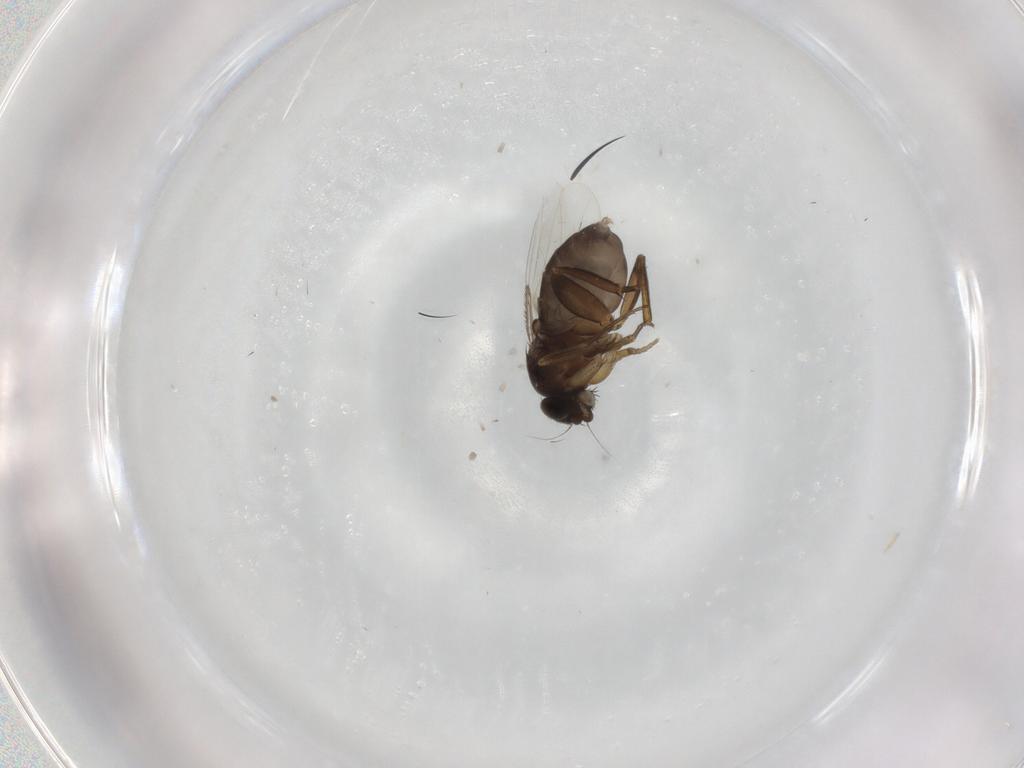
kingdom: Animalia
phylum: Arthropoda
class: Insecta
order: Diptera
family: Phoridae
